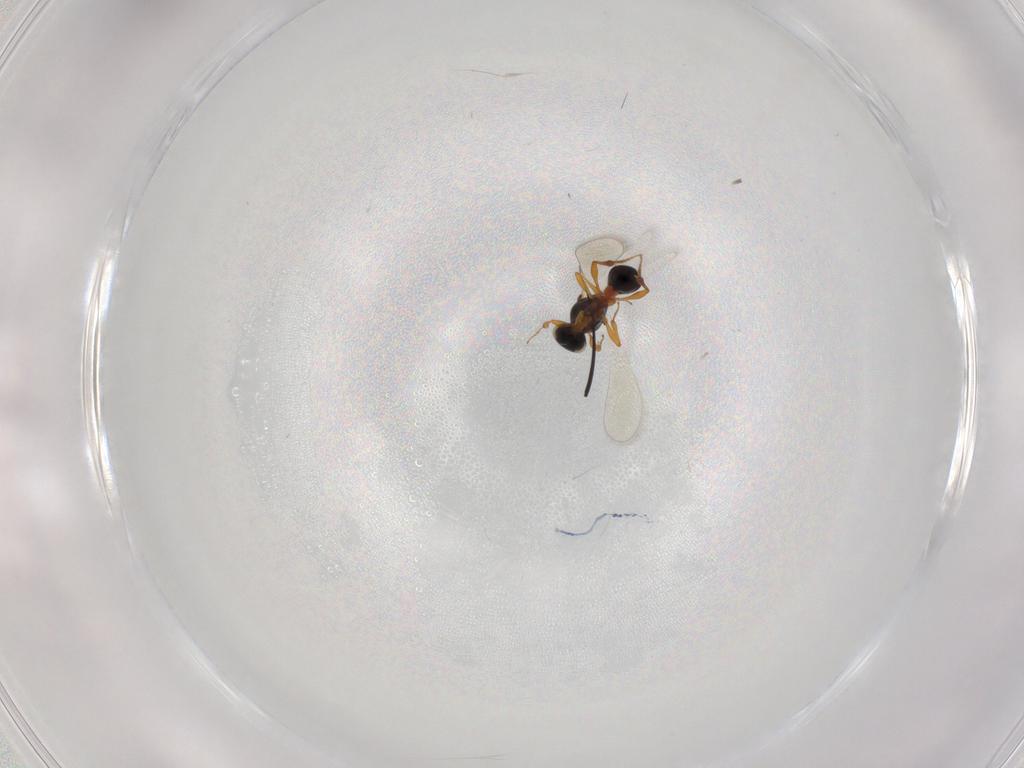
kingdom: Animalia
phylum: Arthropoda
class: Insecta
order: Hymenoptera
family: Platygastridae
